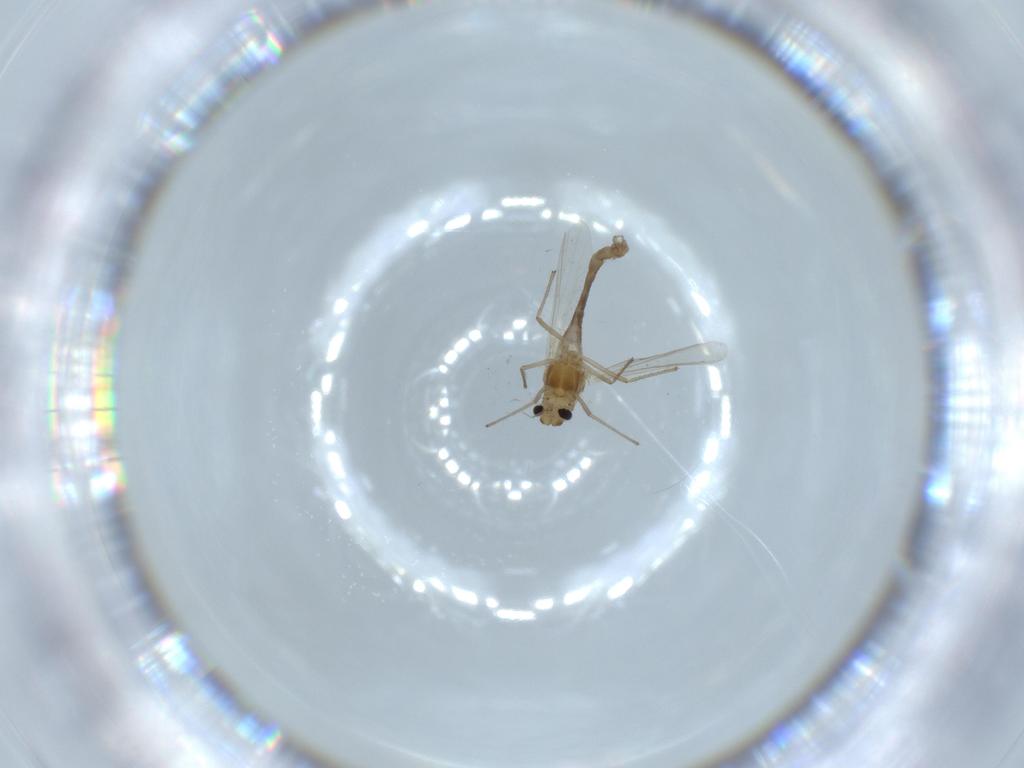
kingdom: Animalia
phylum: Arthropoda
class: Insecta
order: Diptera
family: Chironomidae
